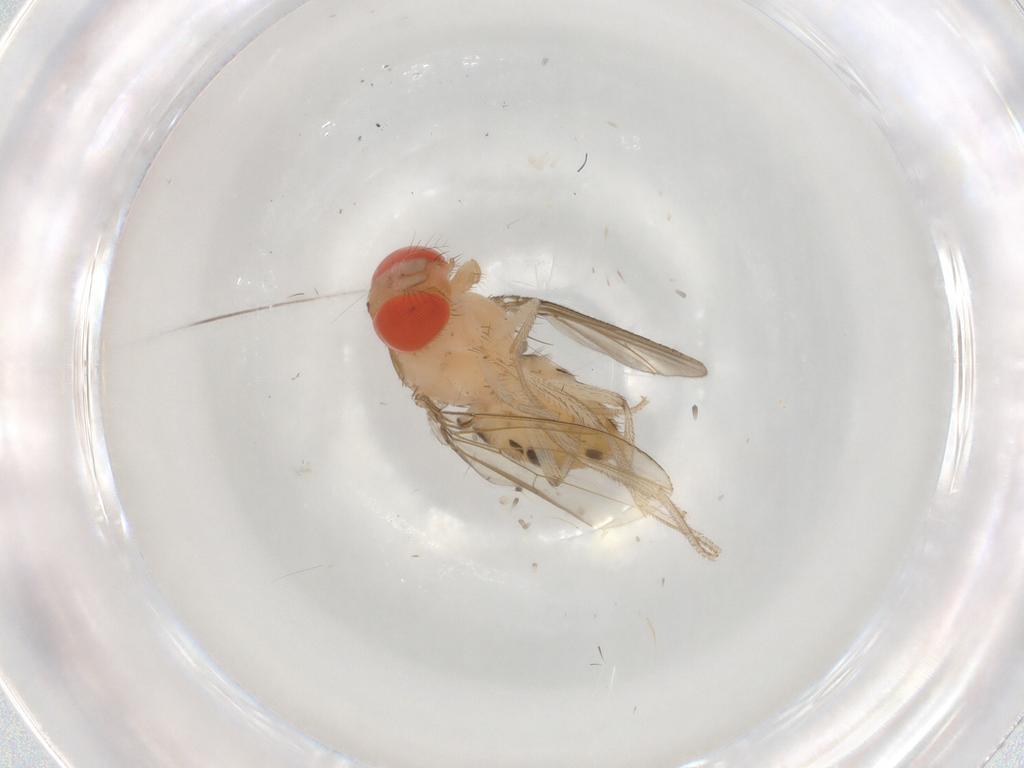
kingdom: Animalia
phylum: Arthropoda
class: Insecta
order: Diptera
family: Drosophilidae
